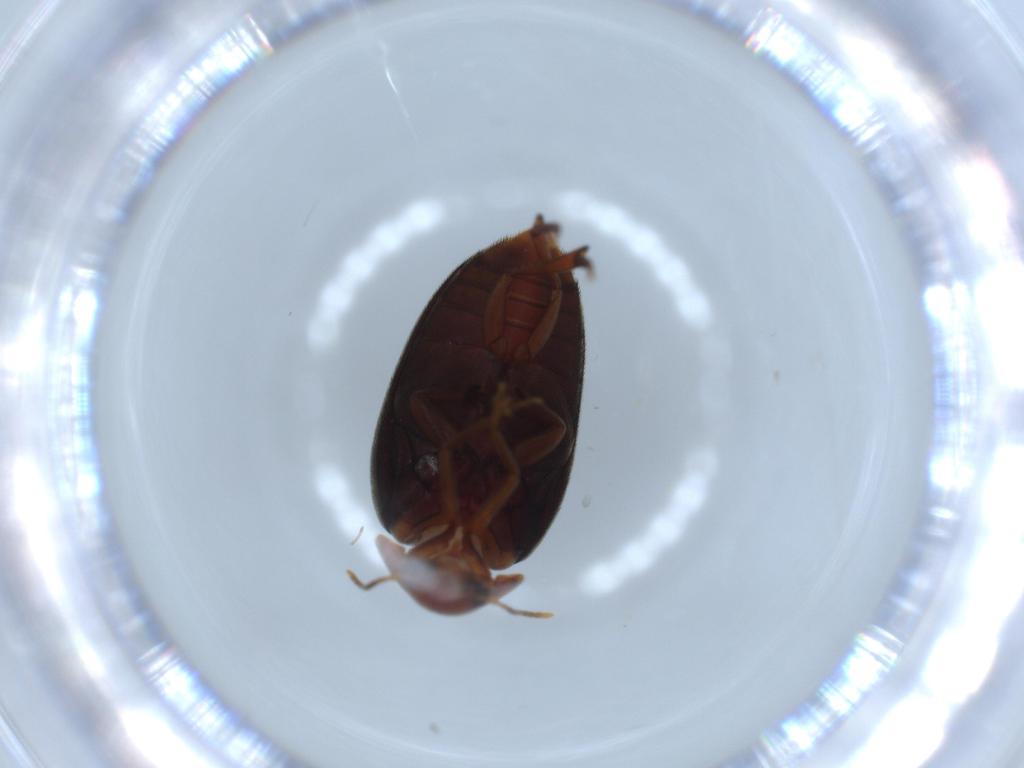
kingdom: Animalia
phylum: Arthropoda
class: Insecta
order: Coleoptera
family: Eucinetidae
